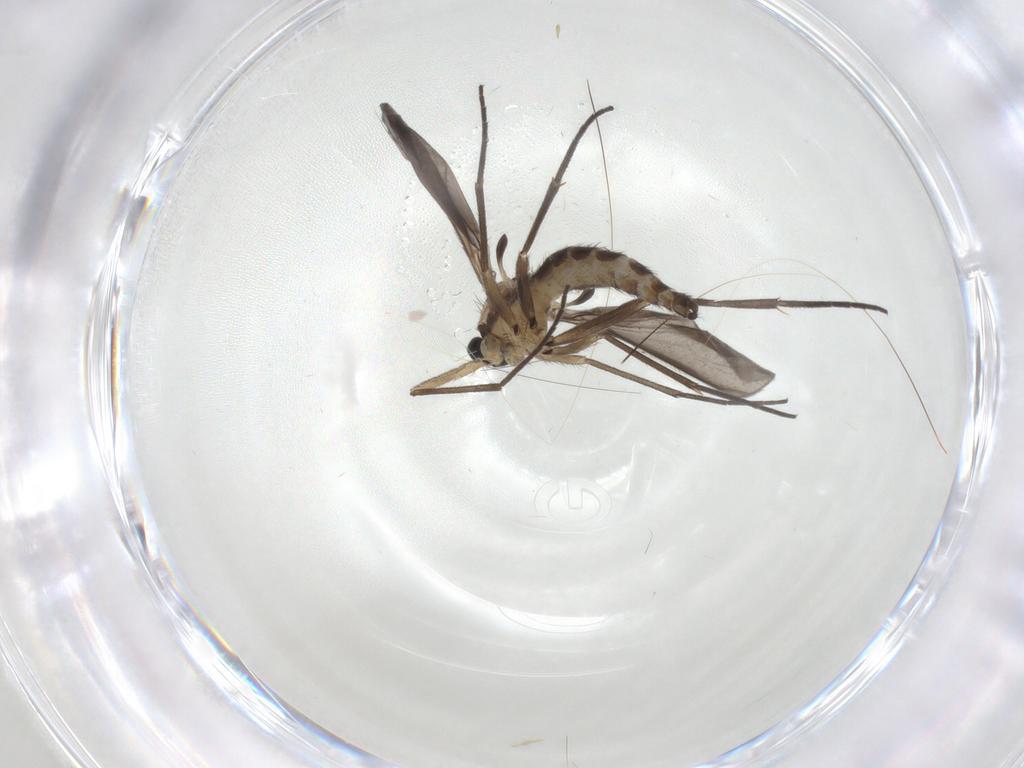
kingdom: Animalia
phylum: Arthropoda
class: Insecta
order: Diptera
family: Sciaridae
